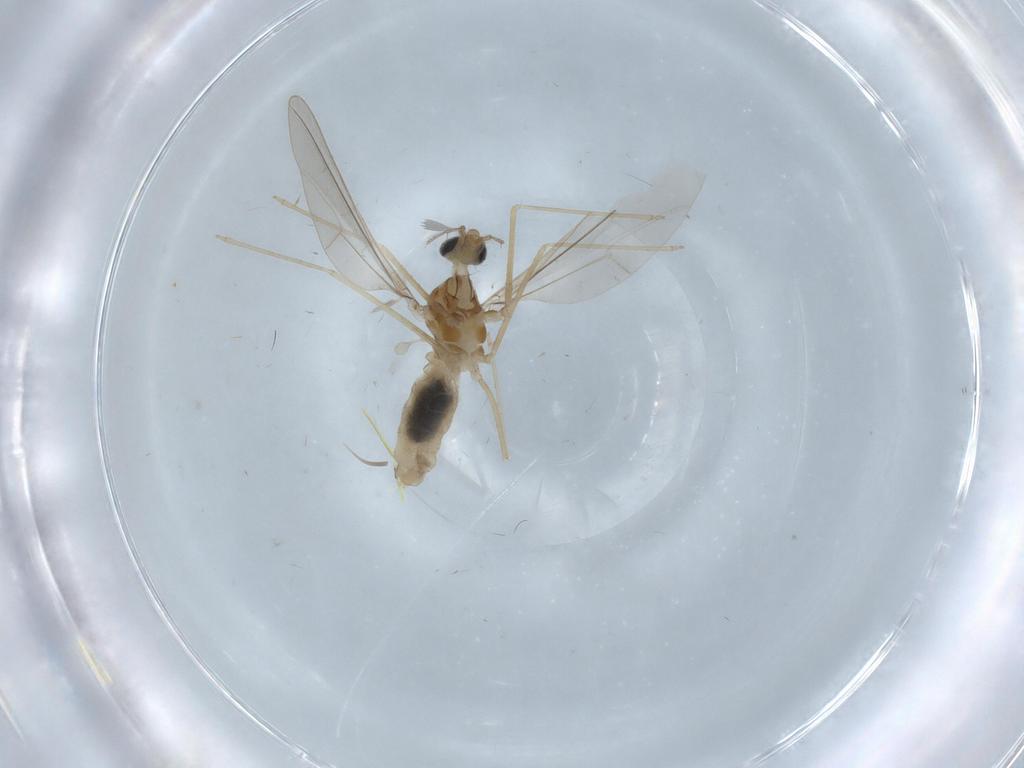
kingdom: Animalia
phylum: Arthropoda
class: Insecta
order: Diptera
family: Cecidomyiidae
